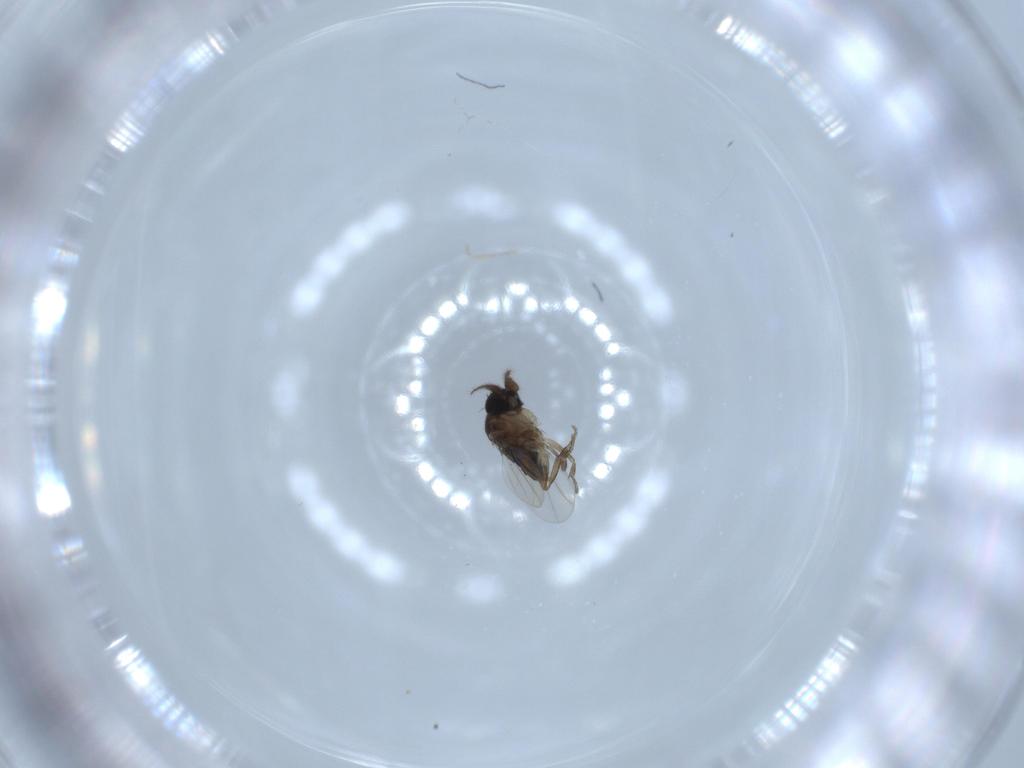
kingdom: Animalia
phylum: Arthropoda
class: Insecta
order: Diptera
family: Phoridae
